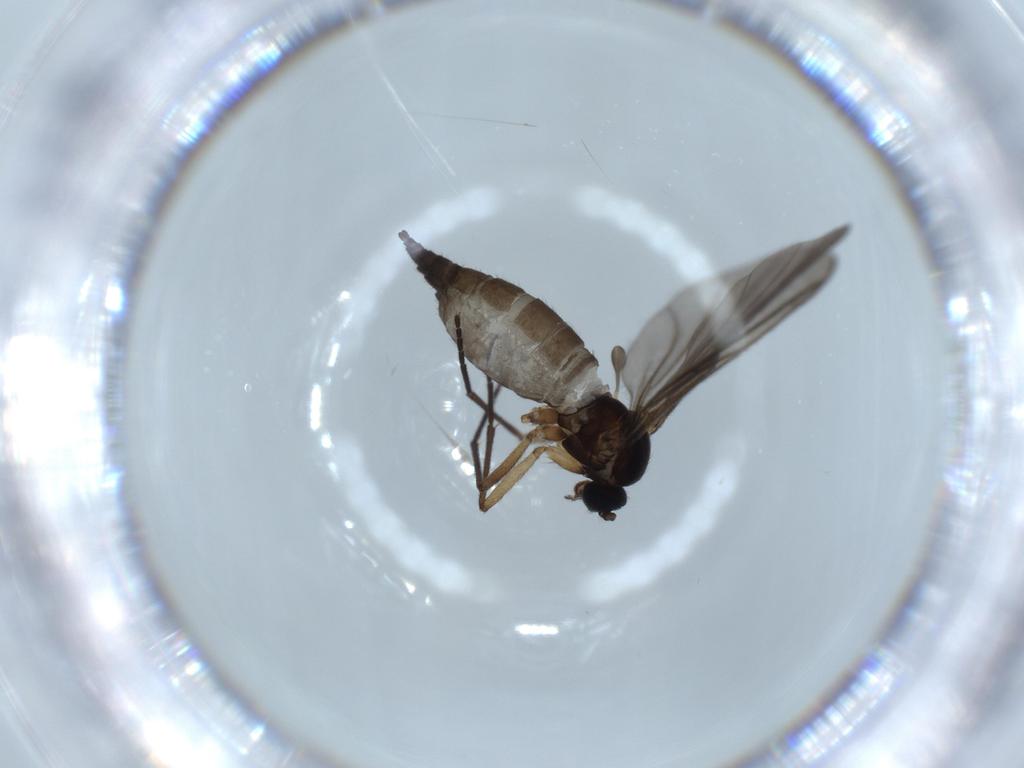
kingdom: Animalia
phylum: Arthropoda
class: Insecta
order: Diptera
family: Sciaridae
